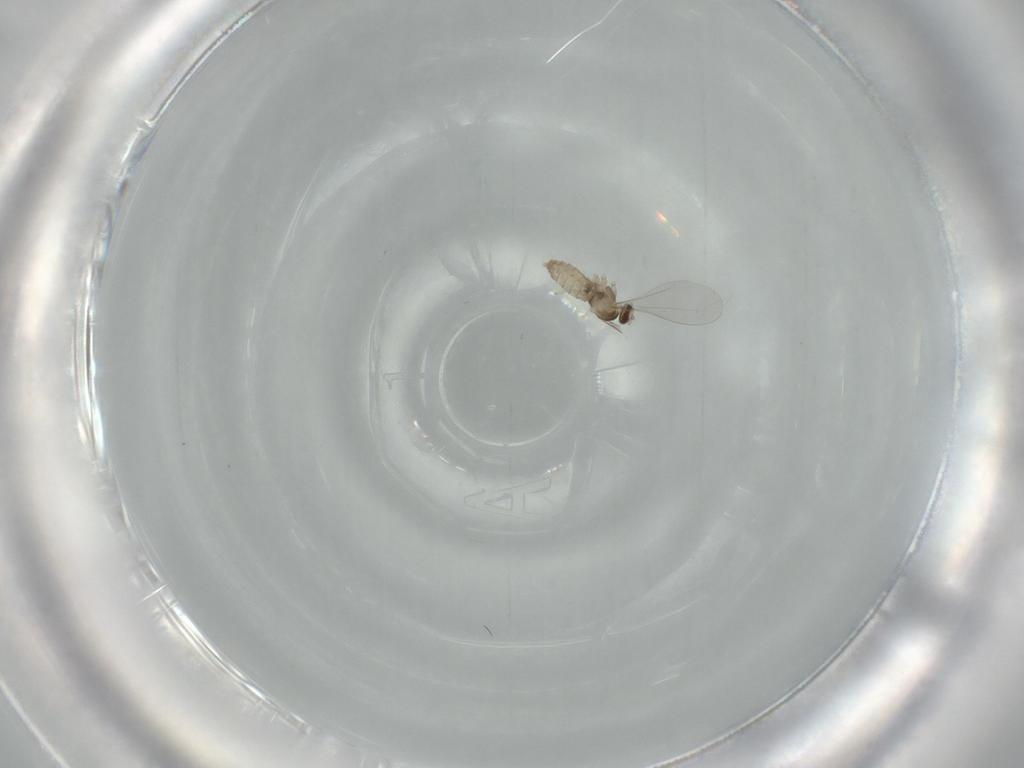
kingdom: Animalia
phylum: Arthropoda
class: Insecta
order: Diptera
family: Cecidomyiidae
